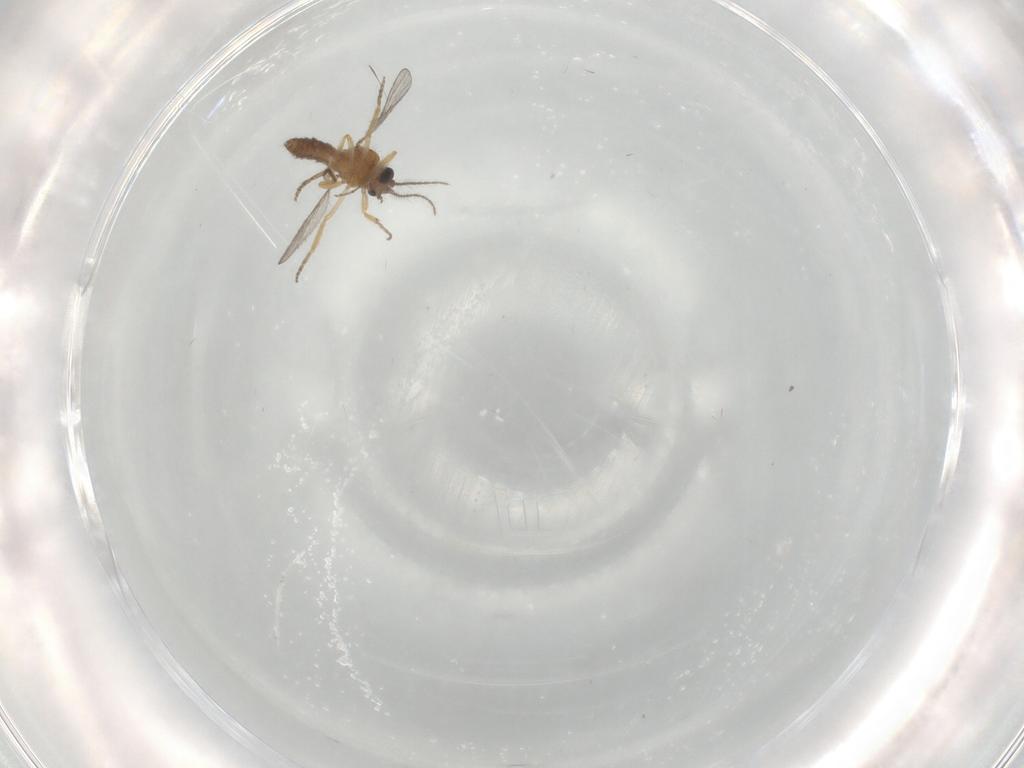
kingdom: Animalia
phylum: Arthropoda
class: Insecta
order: Diptera
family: Ceratopogonidae
